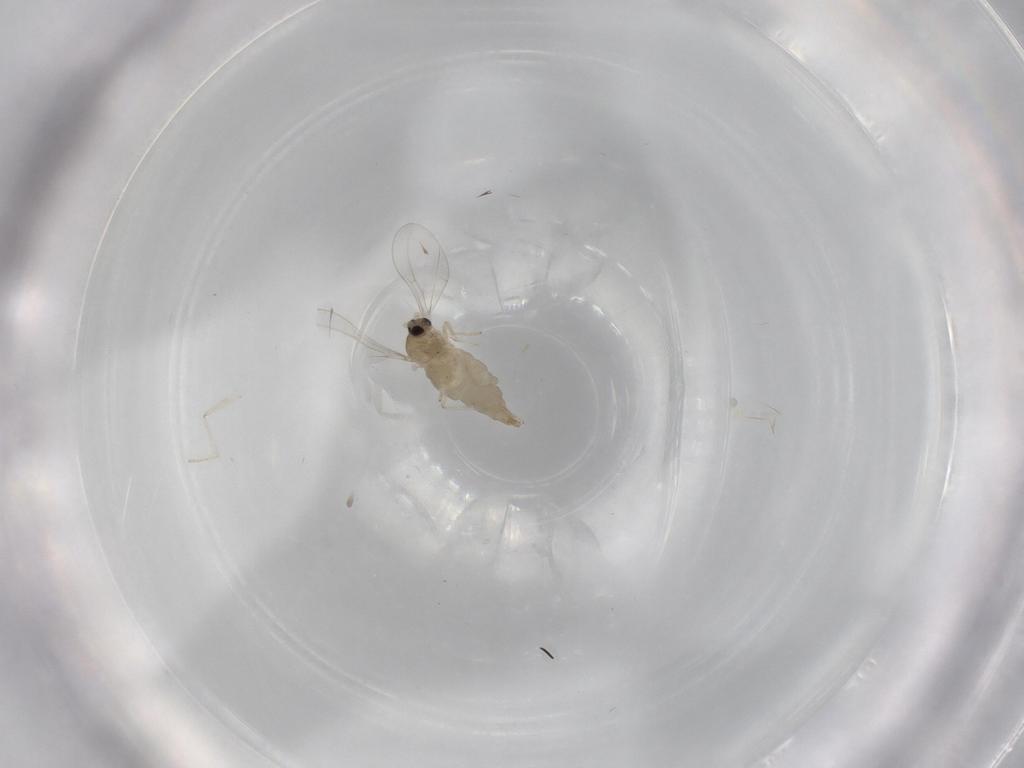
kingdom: Animalia
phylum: Arthropoda
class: Insecta
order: Diptera
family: Cecidomyiidae
